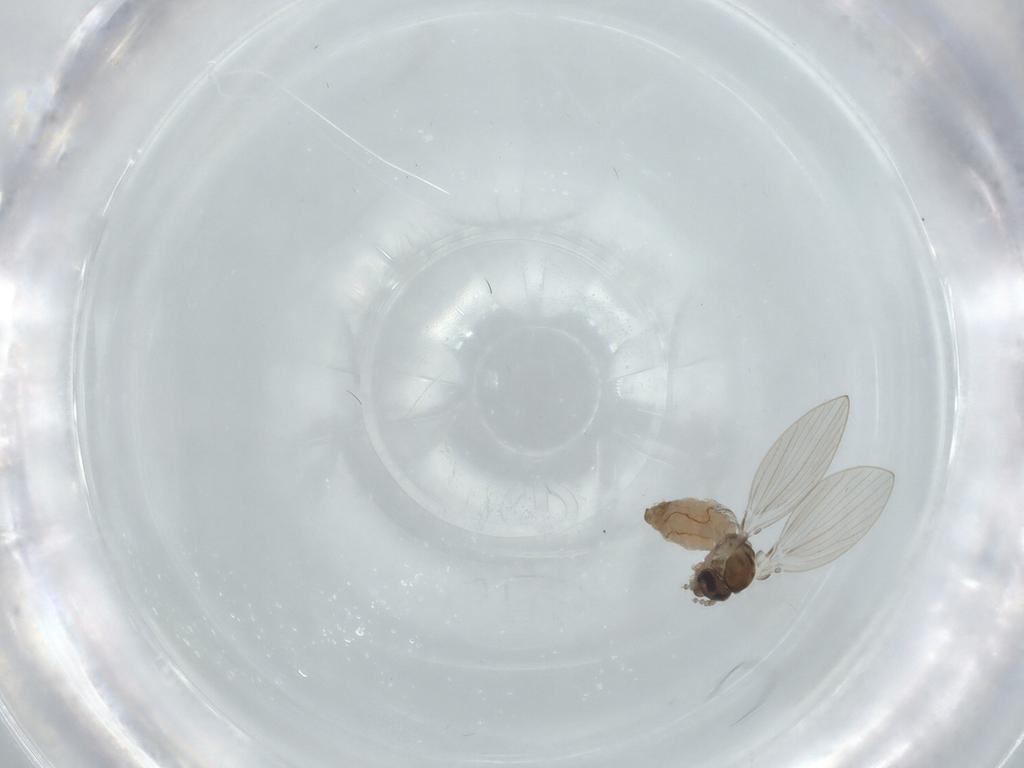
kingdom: Animalia
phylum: Arthropoda
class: Insecta
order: Diptera
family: Psychodidae
